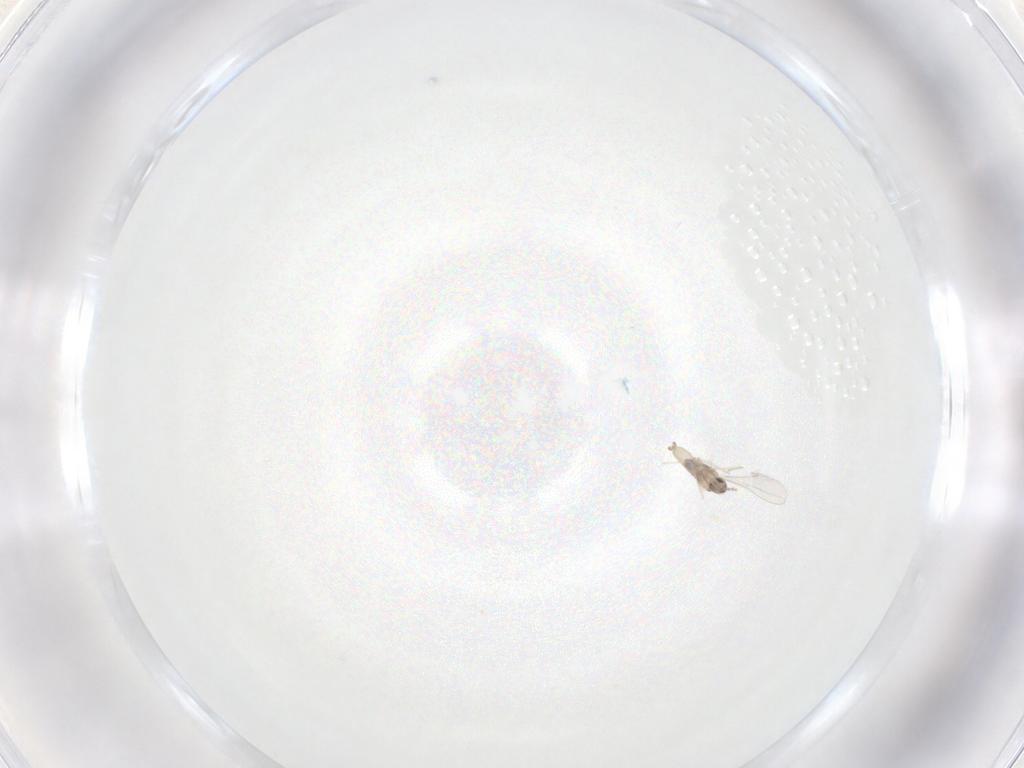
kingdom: Animalia
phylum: Arthropoda
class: Insecta
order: Diptera
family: Cecidomyiidae
